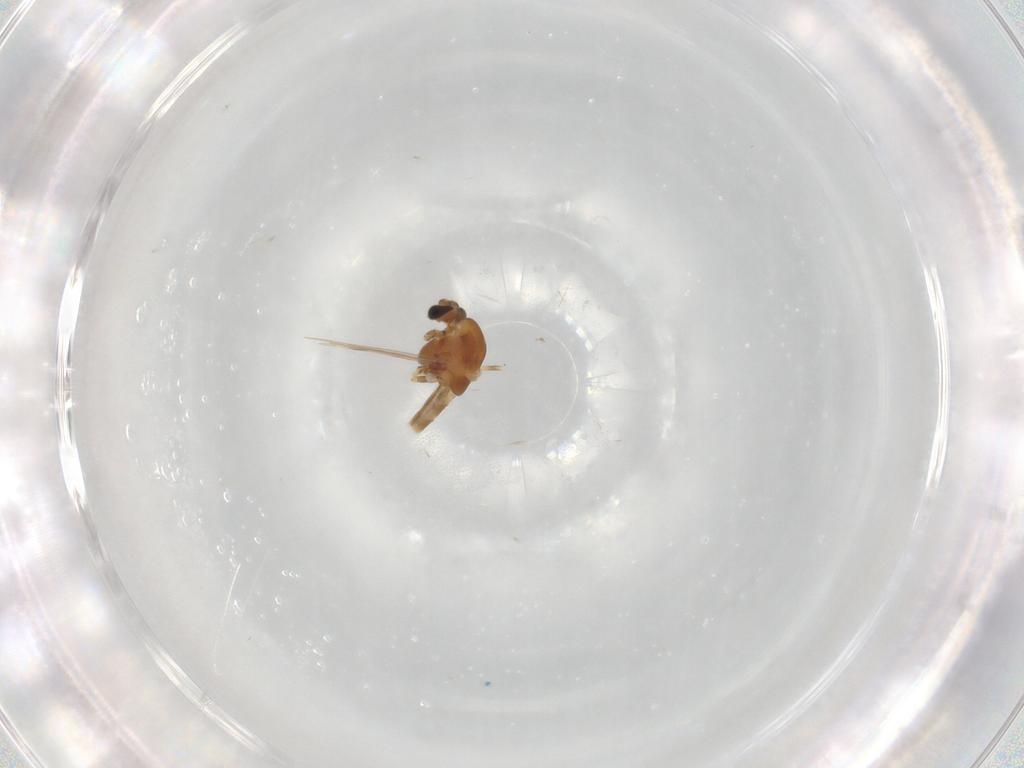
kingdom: Animalia
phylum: Arthropoda
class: Insecta
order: Diptera
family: Chironomidae
